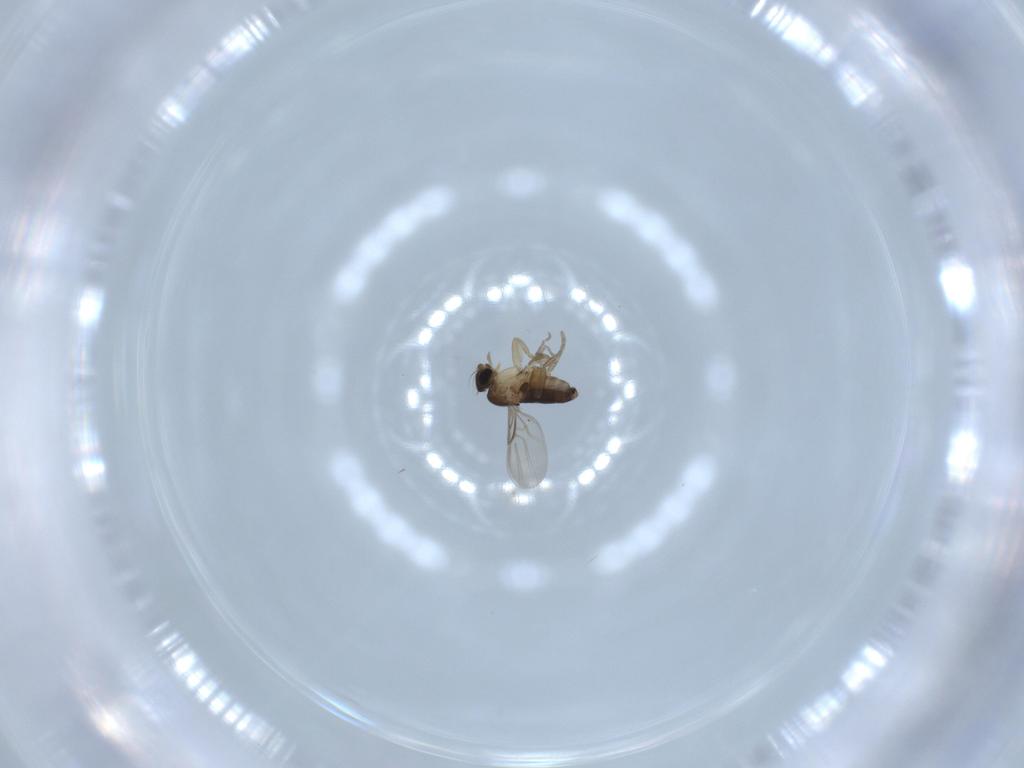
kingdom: Animalia
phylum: Arthropoda
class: Insecta
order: Diptera
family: Phoridae
